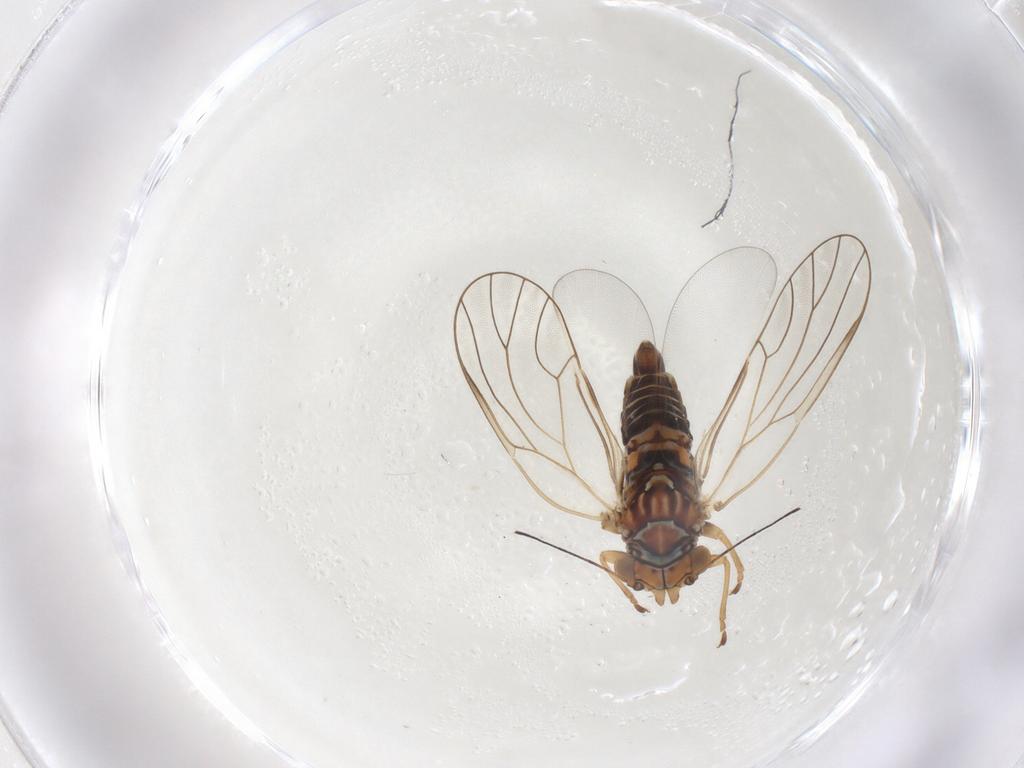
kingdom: Animalia
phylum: Arthropoda
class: Insecta
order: Hemiptera
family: Psyllidae
